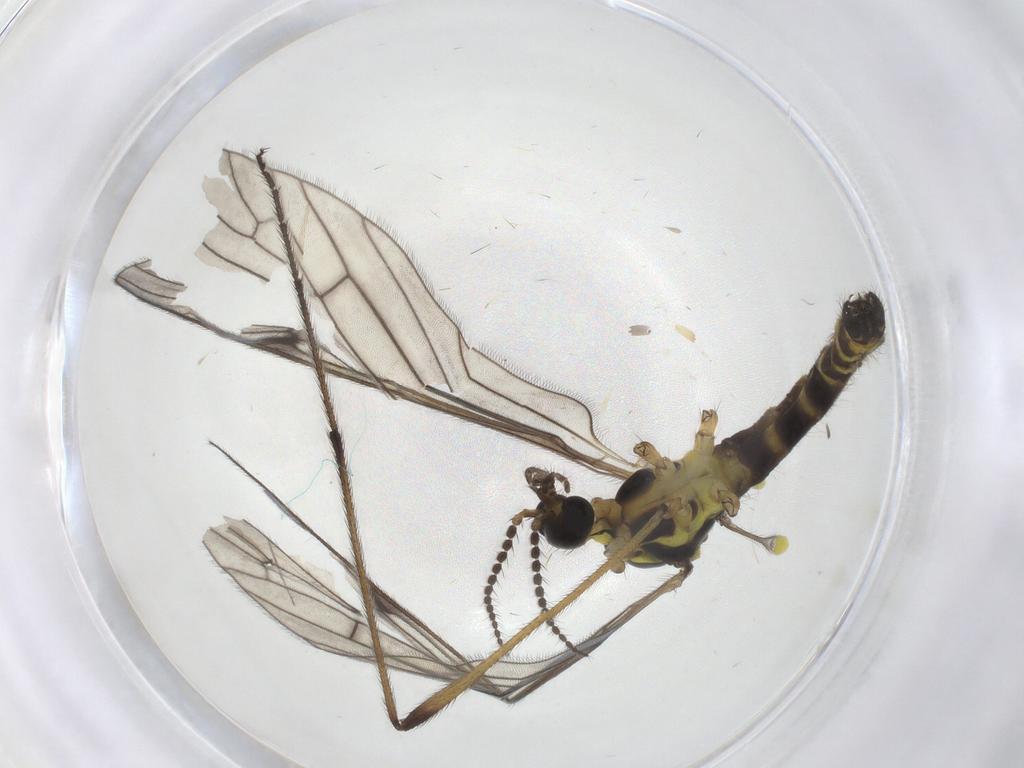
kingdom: Animalia
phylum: Arthropoda
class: Insecta
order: Diptera
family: Limoniidae
